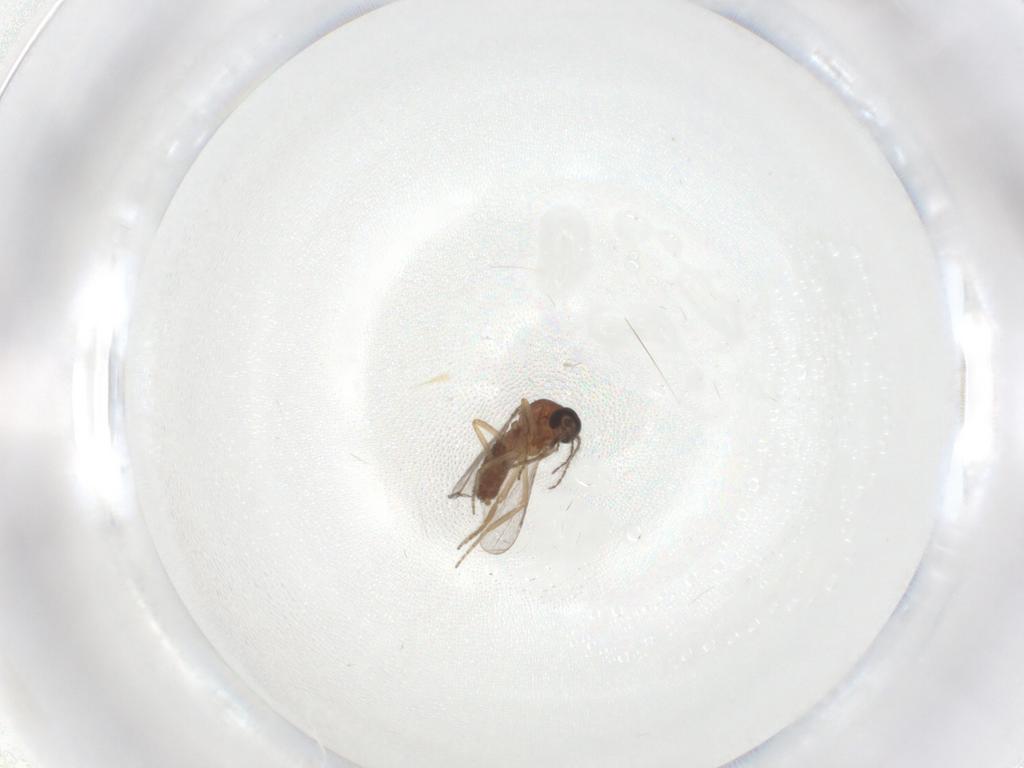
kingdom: Animalia
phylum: Arthropoda
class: Insecta
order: Diptera
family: Ceratopogonidae
